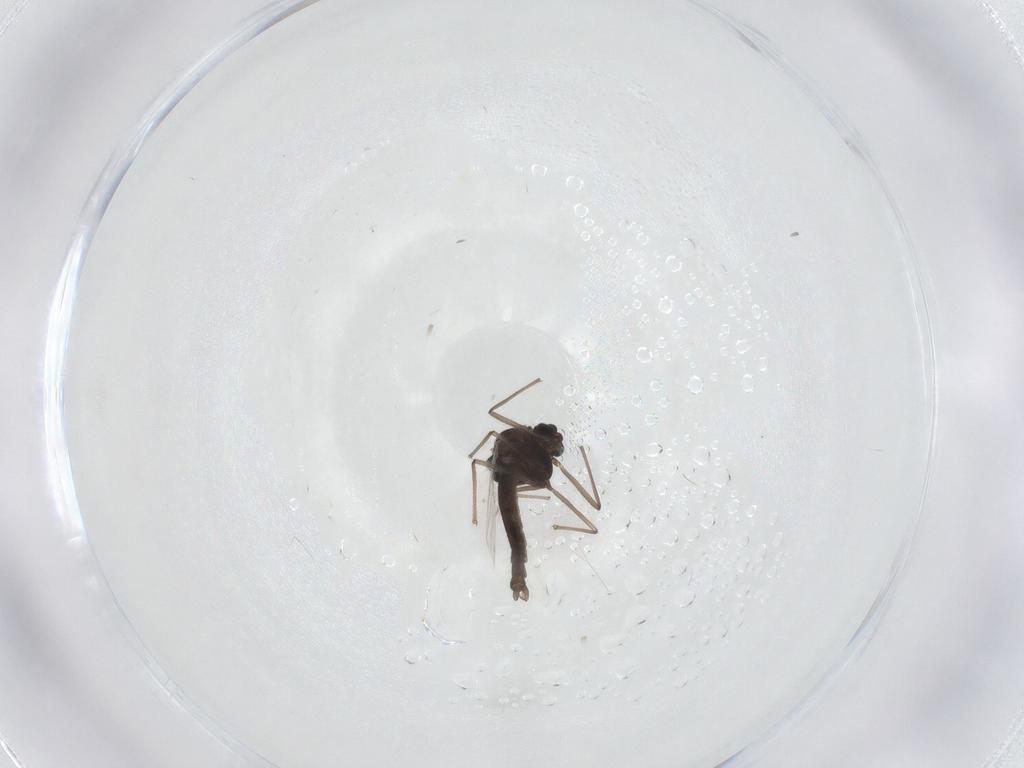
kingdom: Animalia
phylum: Arthropoda
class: Insecta
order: Diptera
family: Chironomidae
